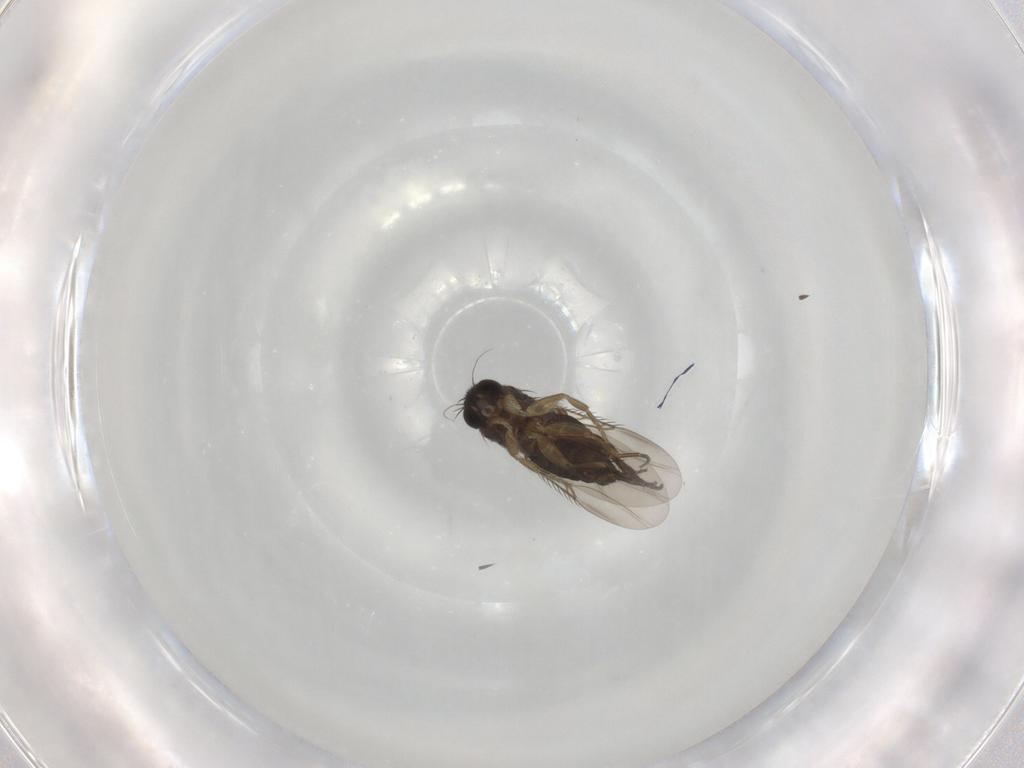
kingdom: Animalia
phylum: Arthropoda
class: Insecta
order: Diptera
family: Phoridae
